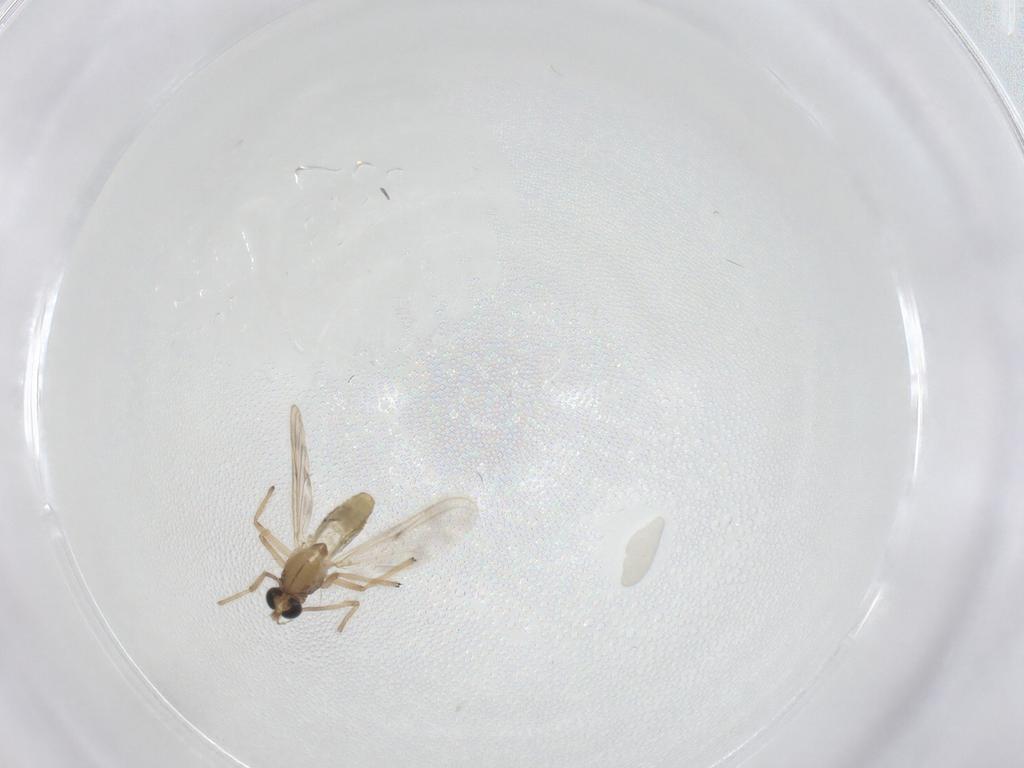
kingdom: Animalia
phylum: Arthropoda
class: Insecta
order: Diptera
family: Chironomidae
